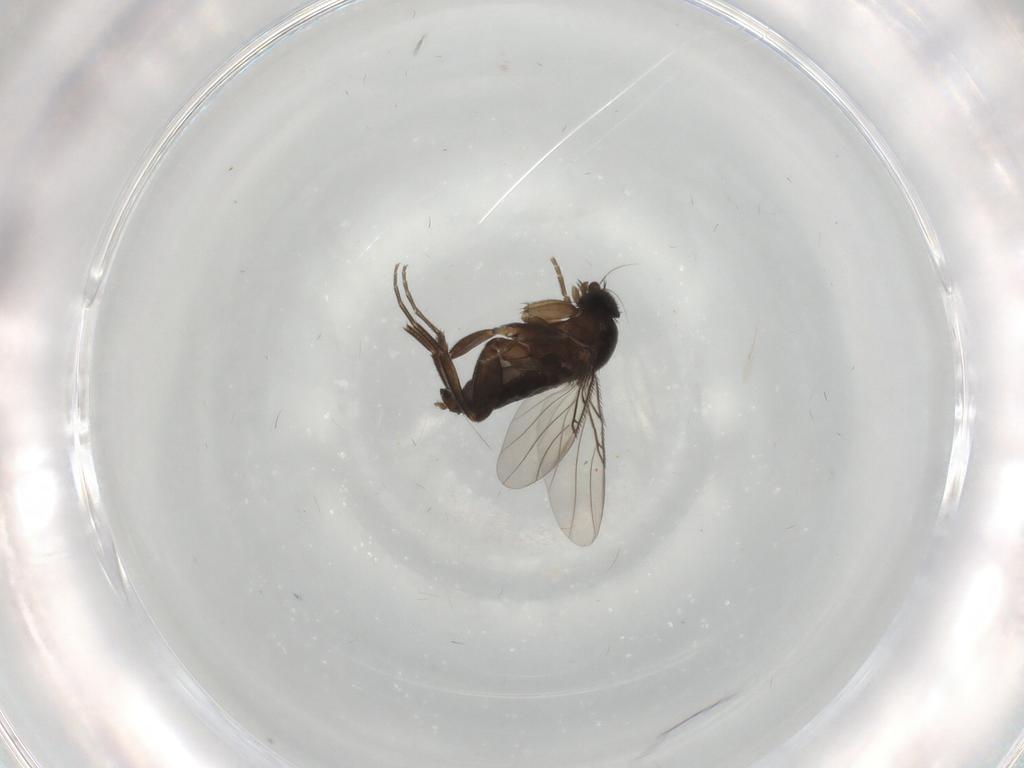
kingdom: Animalia
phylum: Arthropoda
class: Insecta
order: Diptera
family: Phoridae
